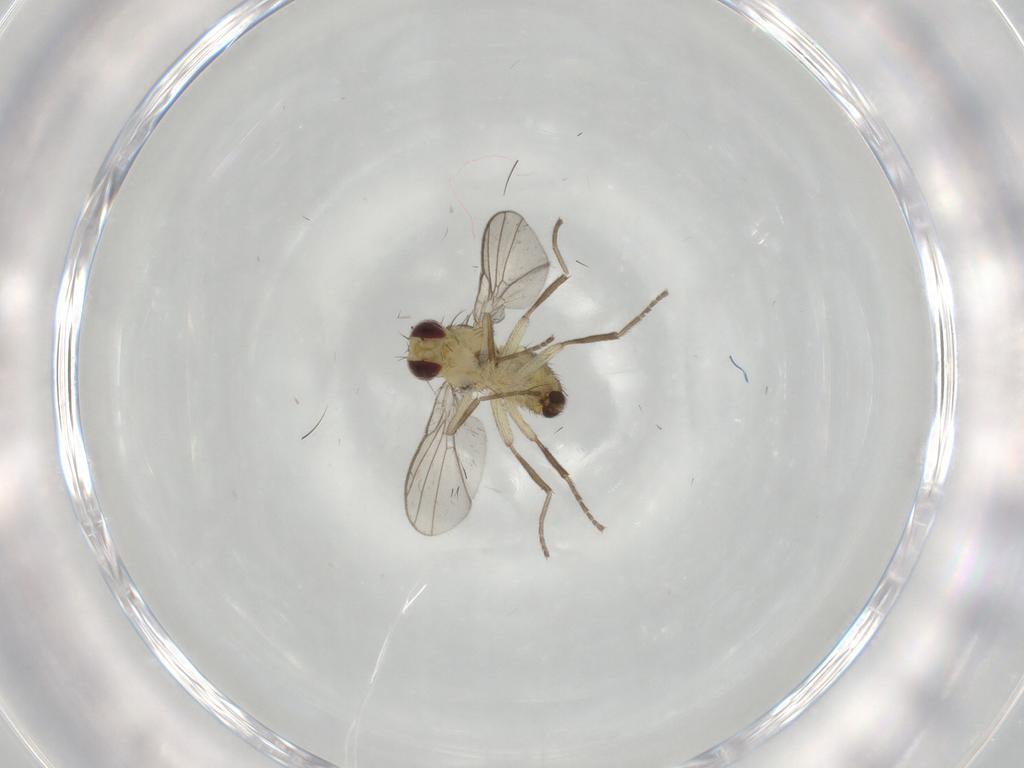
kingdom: Animalia
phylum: Arthropoda
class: Insecta
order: Diptera
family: Agromyzidae
